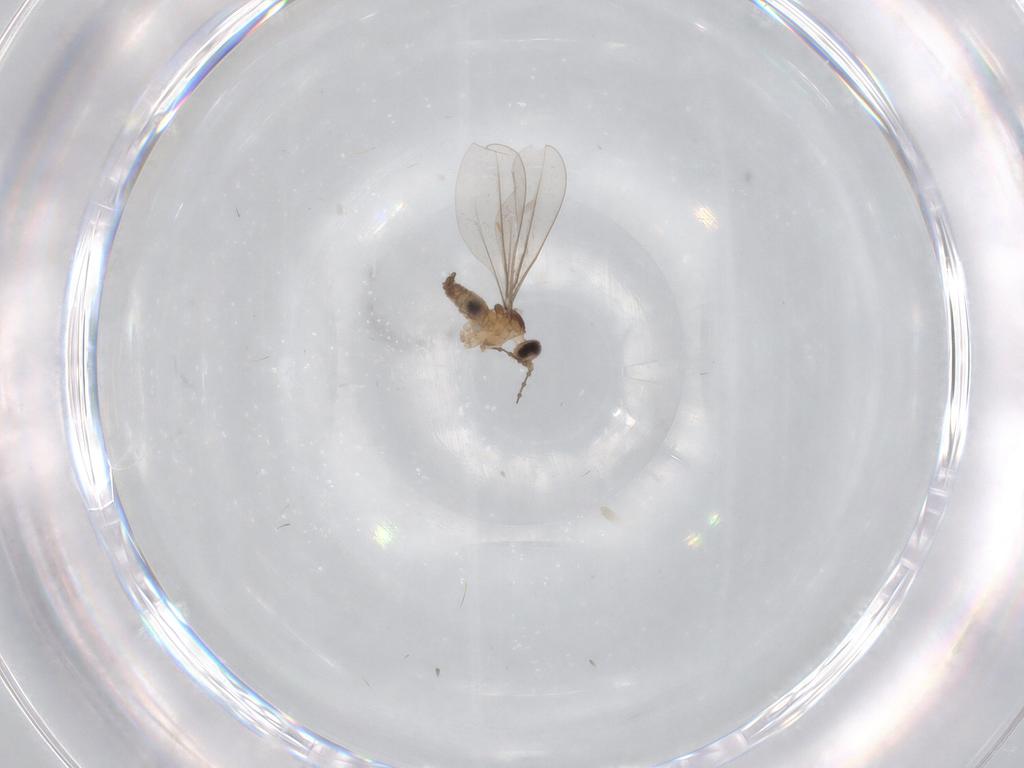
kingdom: Animalia
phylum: Arthropoda
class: Insecta
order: Diptera
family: Cecidomyiidae
